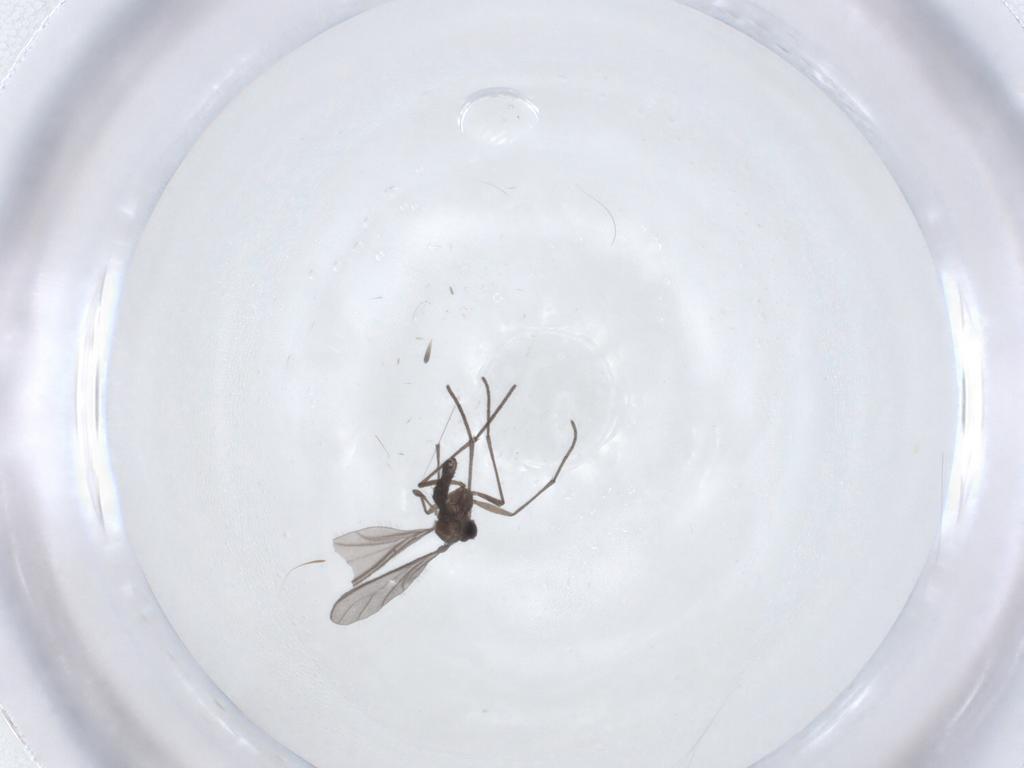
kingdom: Animalia
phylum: Arthropoda
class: Insecta
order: Diptera
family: Sciaridae
